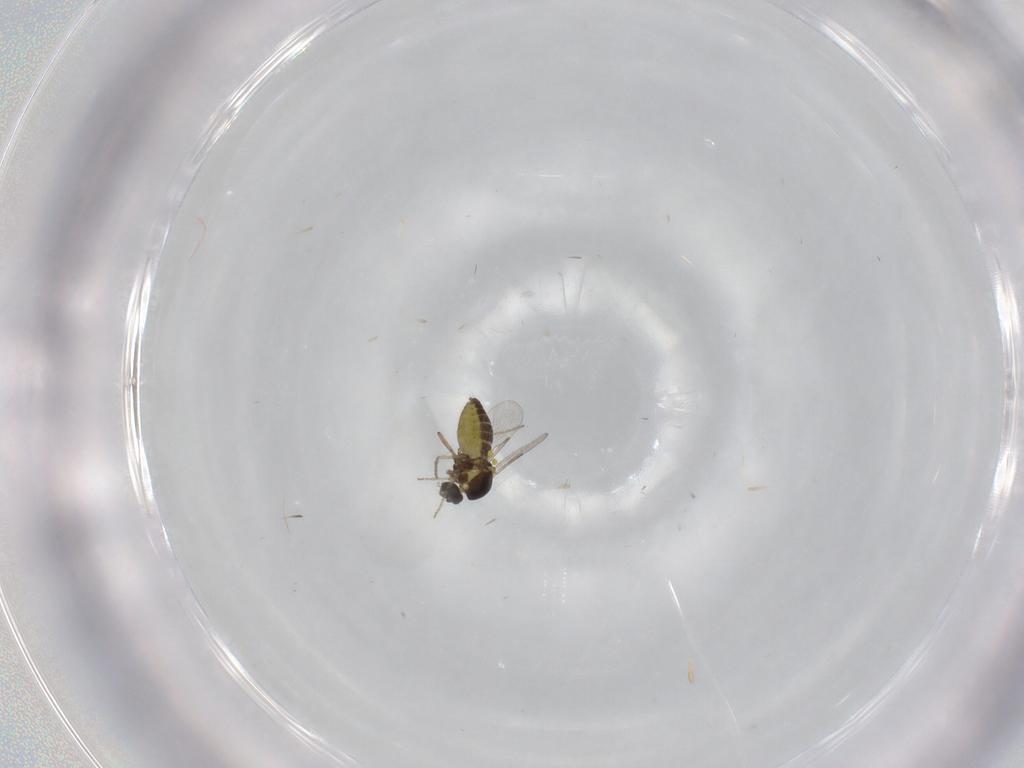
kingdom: Animalia
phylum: Arthropoda
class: Insecta
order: Diptera
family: Ceratopogonidae
